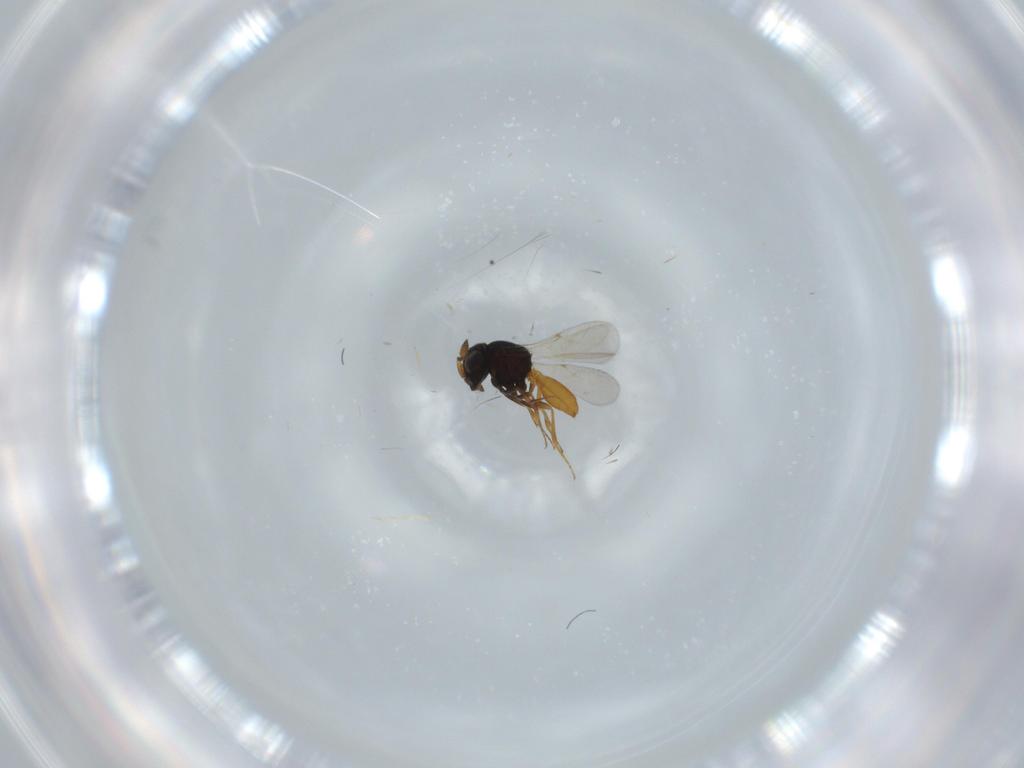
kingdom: Animalia
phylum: Arthropoda
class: Insecta
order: Hymenoptera
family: Scelionidae
